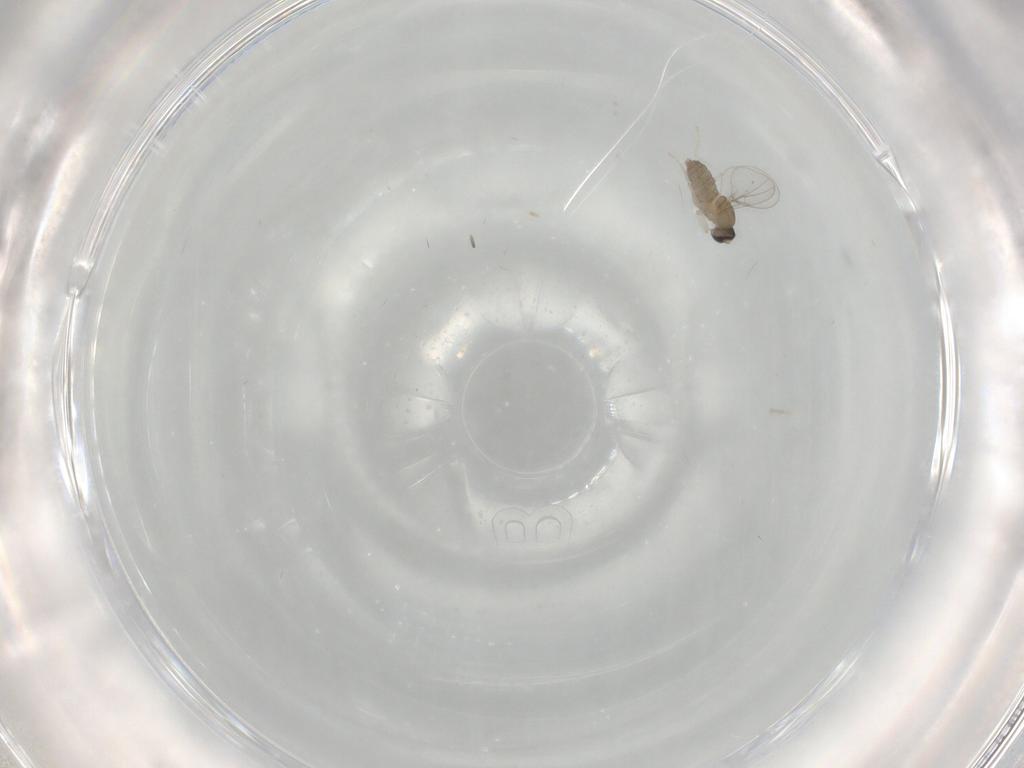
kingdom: Animalia
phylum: Arthropoda
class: Insecta
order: Diptera
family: Cecidomyiidae
